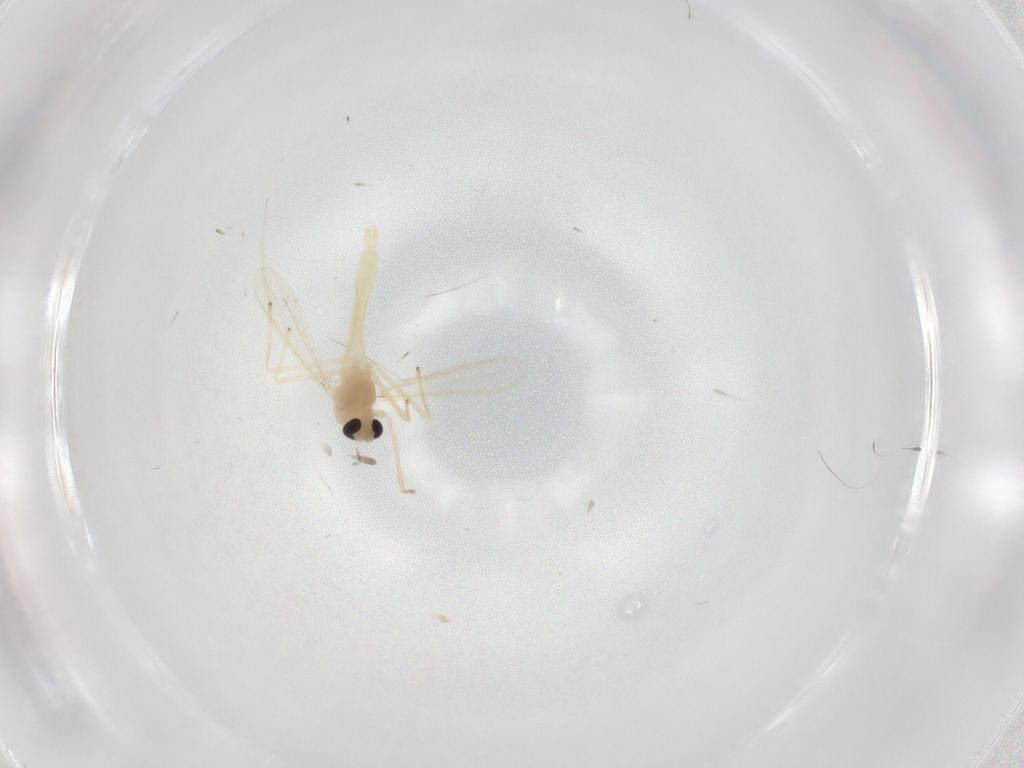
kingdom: Animalia
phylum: Arthropoda
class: Insecta
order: Diptera
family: Chironomidae
